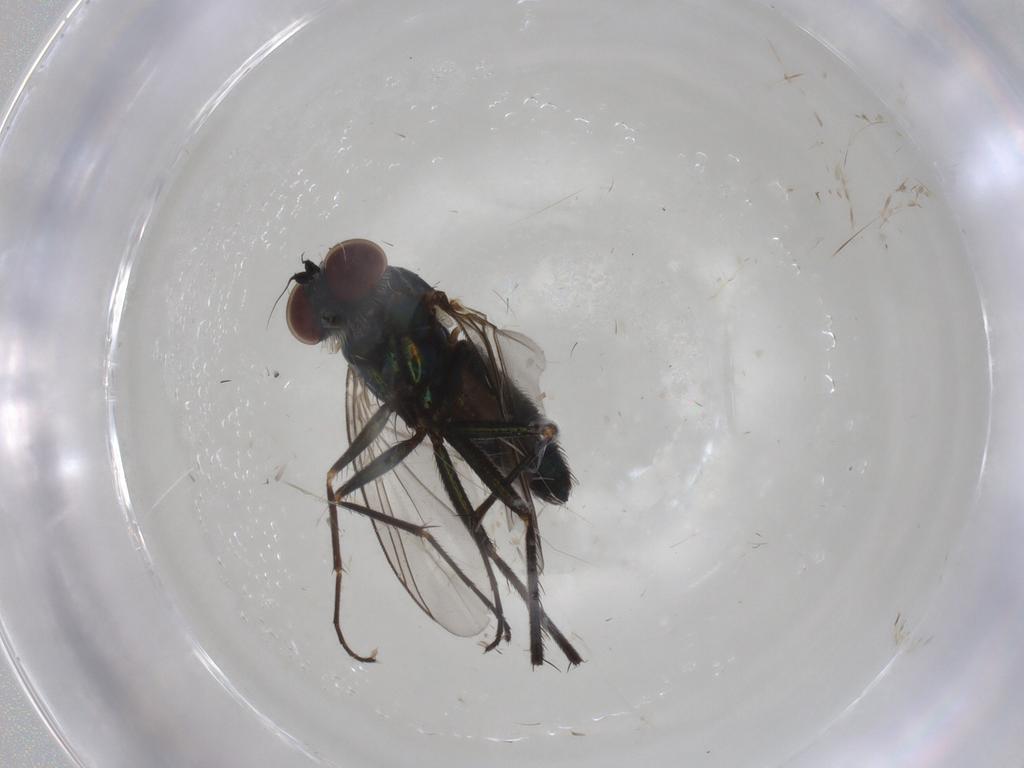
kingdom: Animalia
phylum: Arthropoda
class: Insecta
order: Diptera
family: Dolichopodidae
